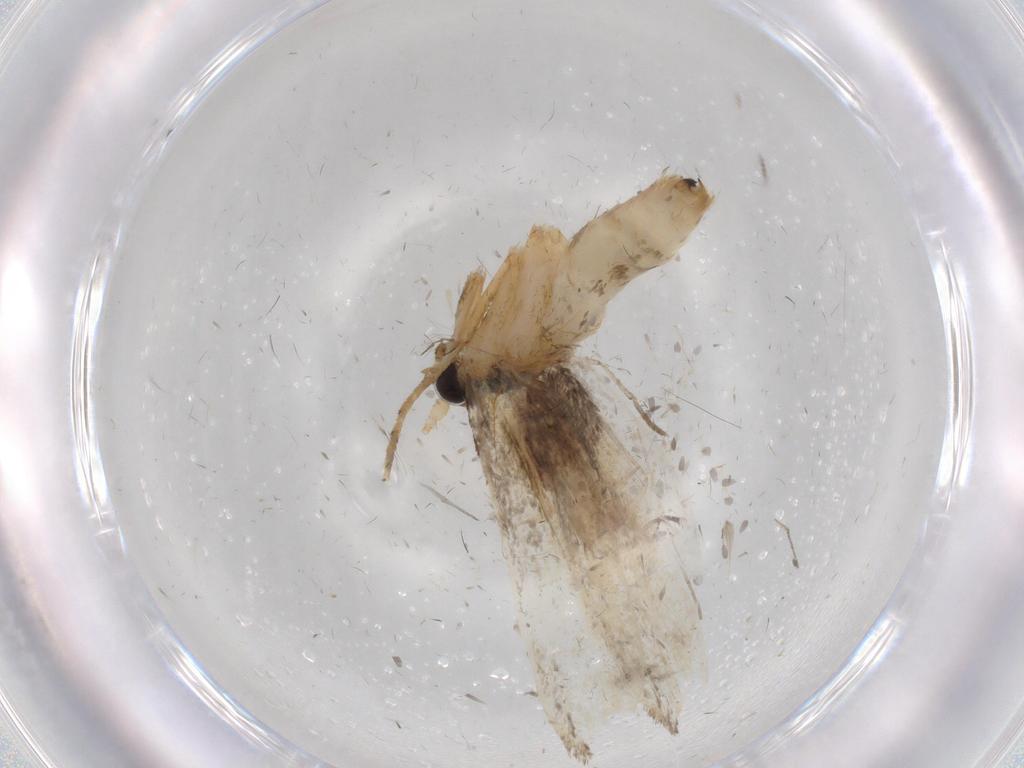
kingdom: Animalia
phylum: Arthropoda
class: Insecta
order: Lepidoptera
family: Tineidae
